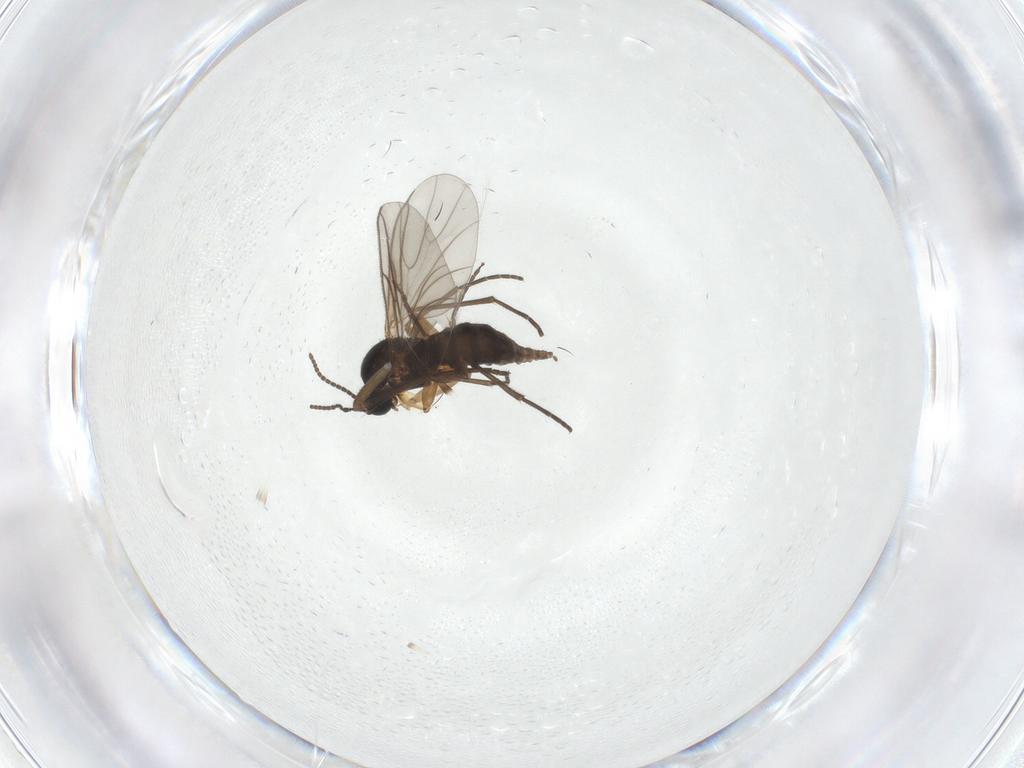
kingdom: Animalia
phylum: Arthropoda
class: Insecta
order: Diptera
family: Sciaridae
